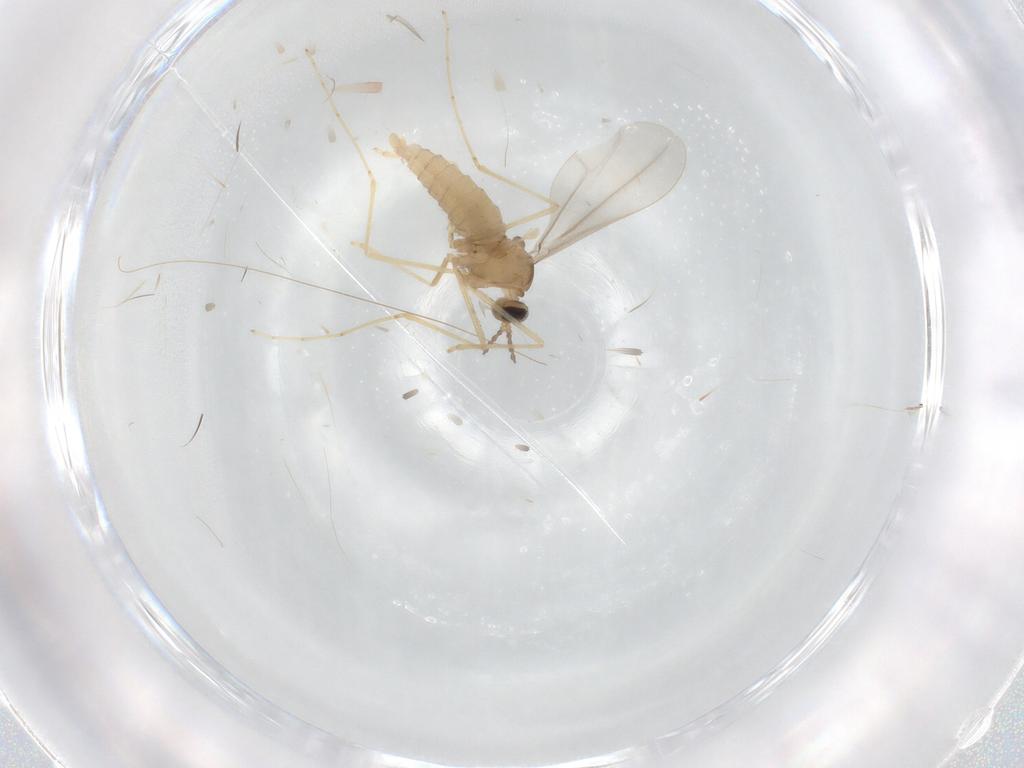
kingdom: Animalia
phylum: Arthropoda
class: Insecta
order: Diptera
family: Cecidomyiidae
